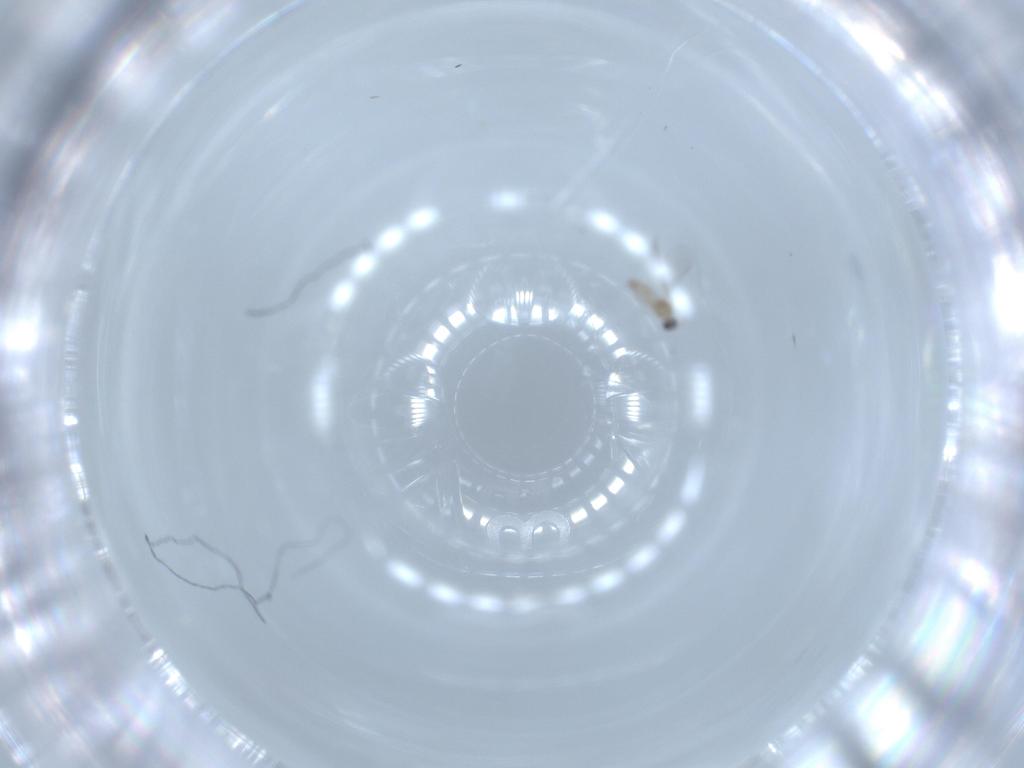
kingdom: Animalia
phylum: Arthropoda
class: Insecta
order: Diptera
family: Cecidomyiidae
